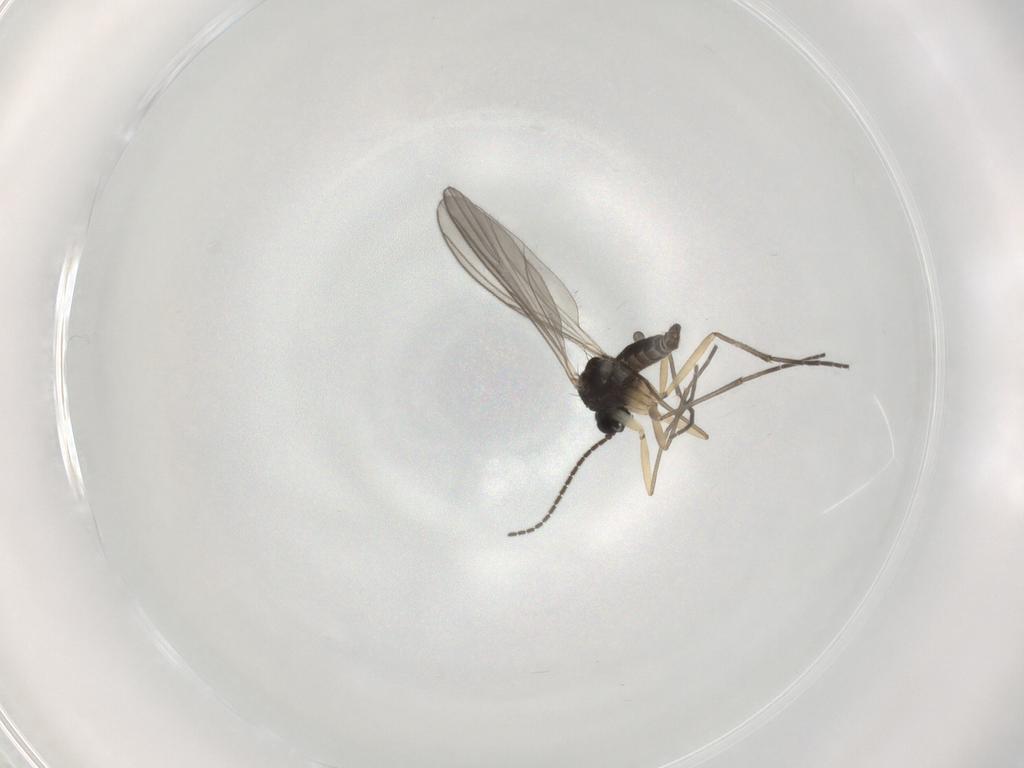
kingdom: Animalia
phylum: Arthropoda
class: Insecta
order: Diptera
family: Sciaridae
